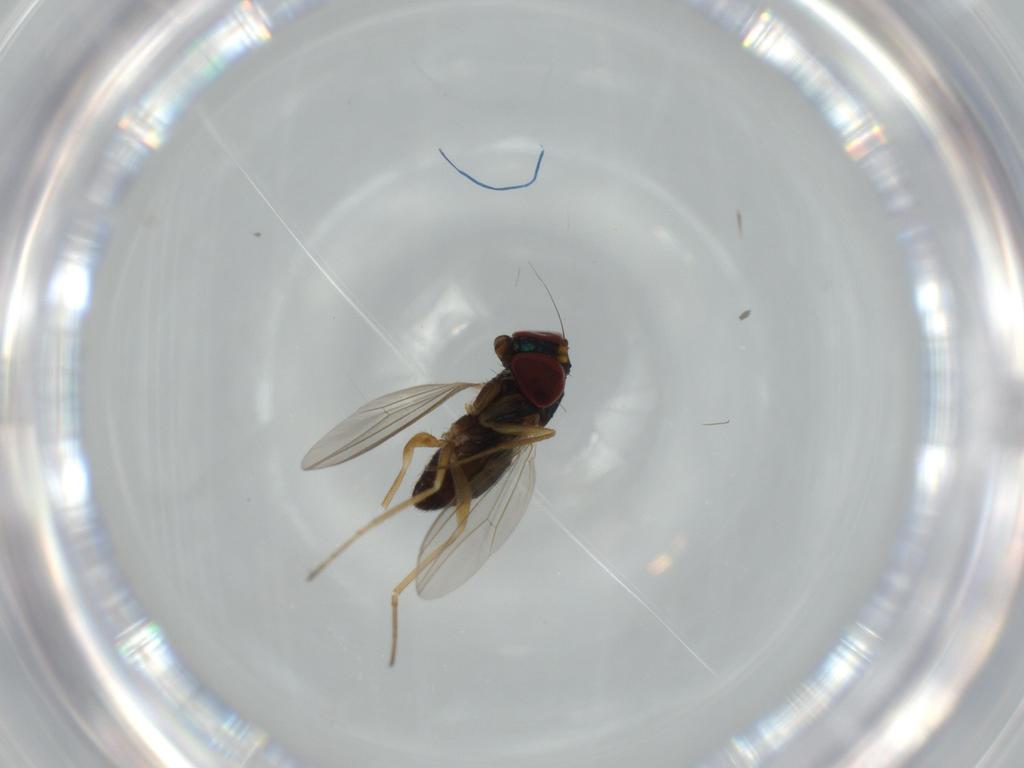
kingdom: Animalia
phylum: Arthropoda
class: Insecta
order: Diptera
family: Dolichopodidae
